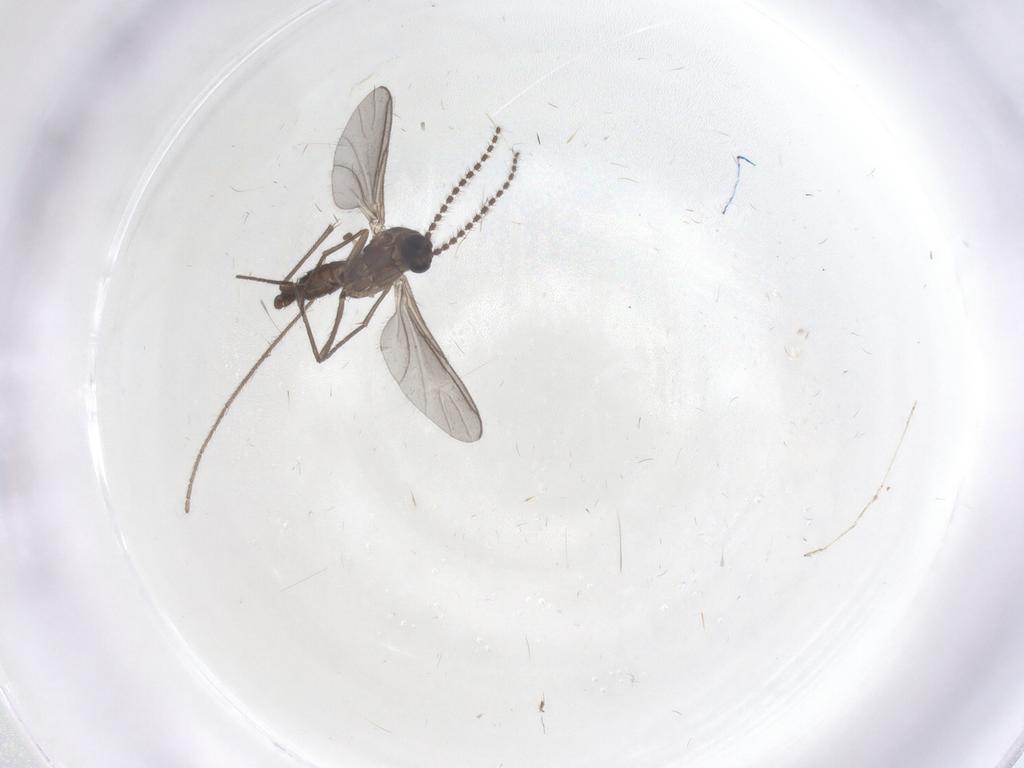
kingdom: Animalia
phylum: Arthropoda
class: Insecta
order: Diptera
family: Sciaridae
